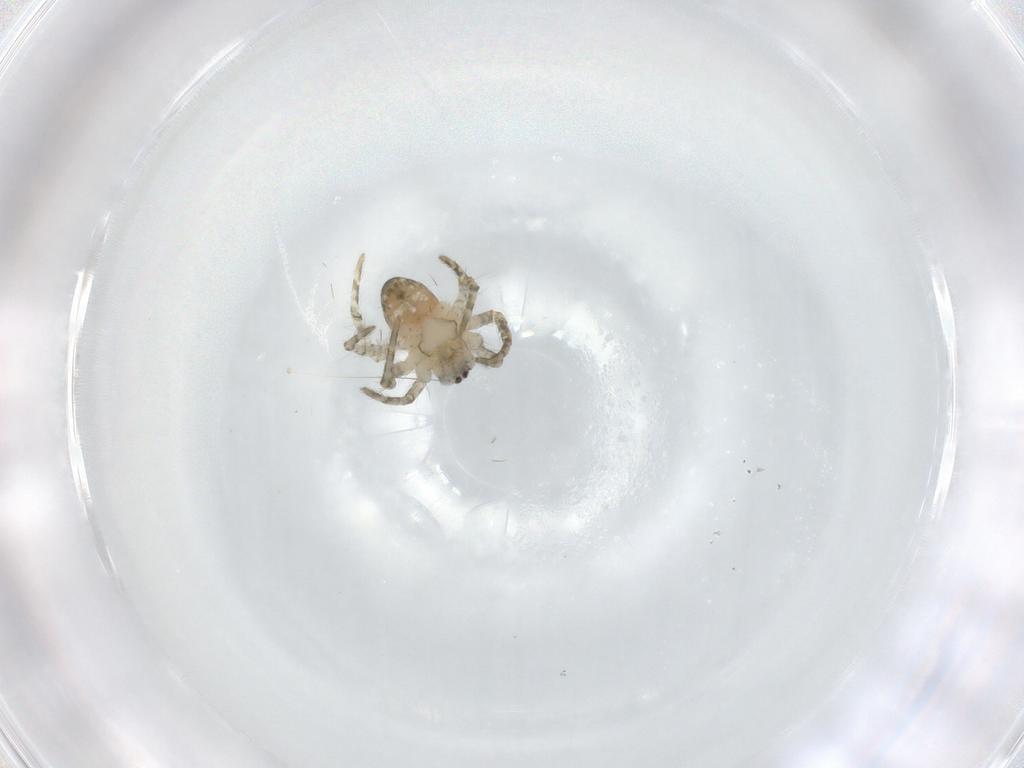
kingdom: Animalia
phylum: Arthropoda
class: Arachnida
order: Araneae
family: Araneidae
